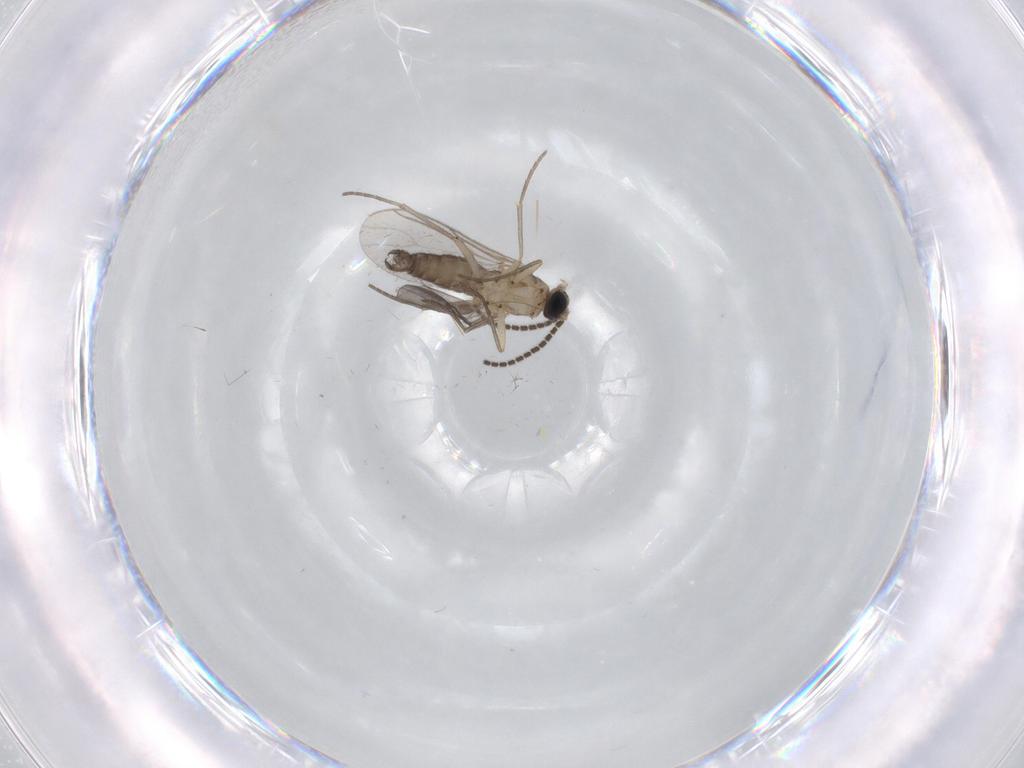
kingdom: Animalia
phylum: Arthropoda
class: Insecta
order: Diptera
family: Sciaridae
